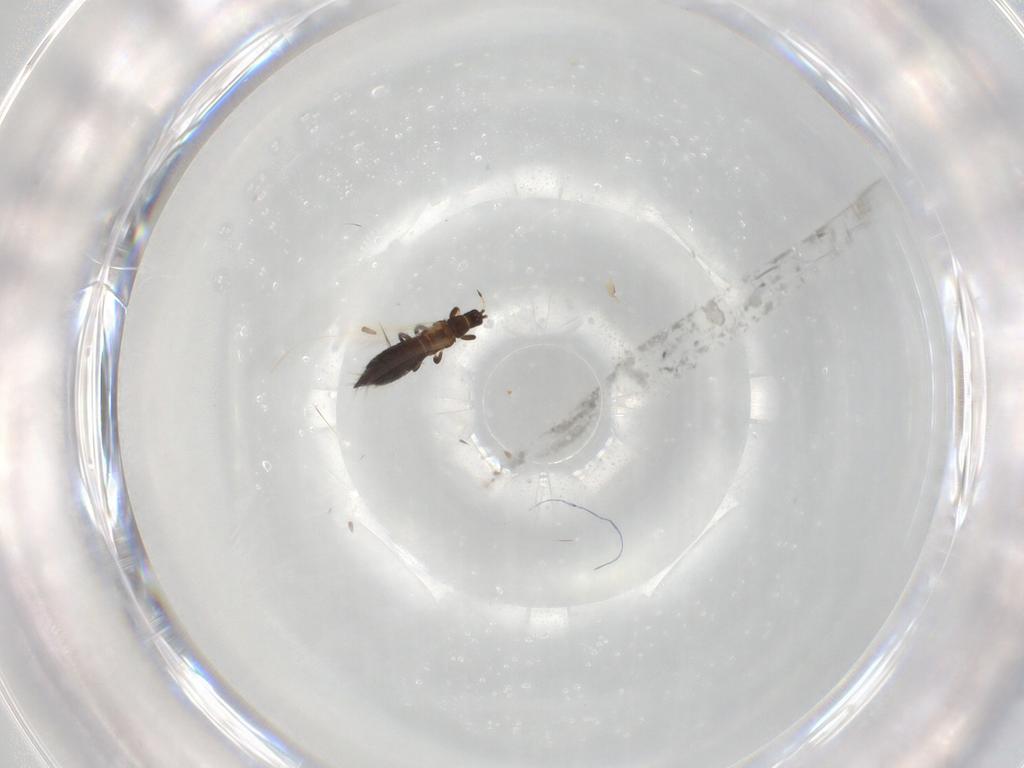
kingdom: Animalia
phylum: Arthropoda
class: Insecta
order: Thysanoptera
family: Thripidae
